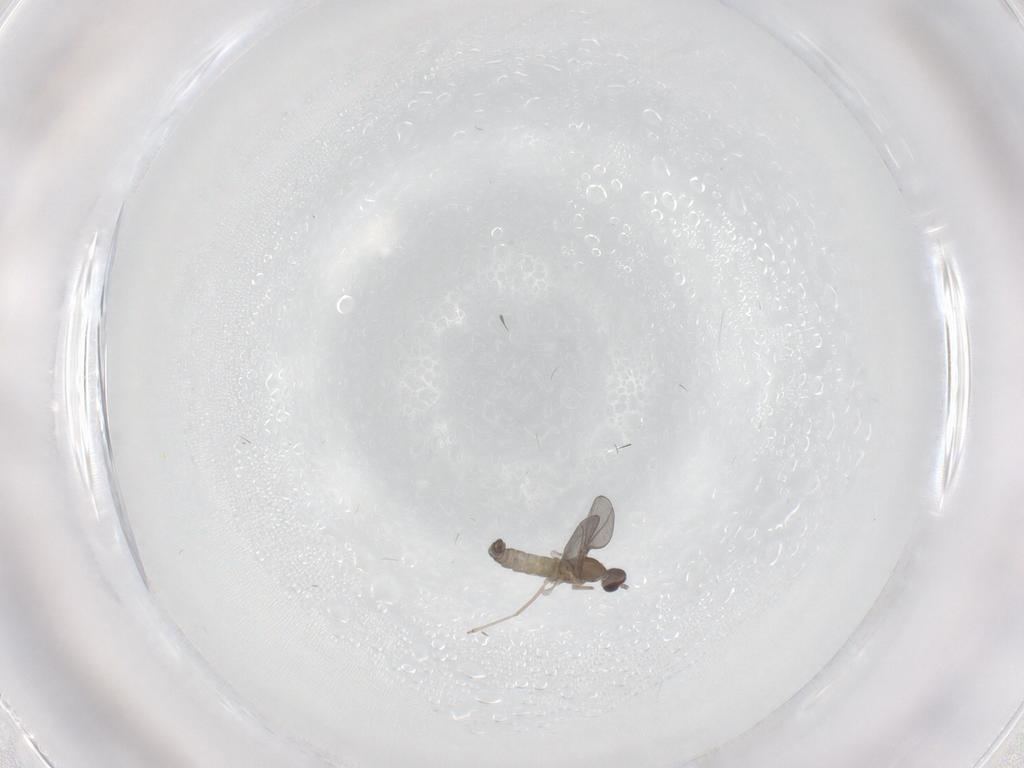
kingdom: Animalia
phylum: Arthropoda
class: Insecta
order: Diptera
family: Cecidomyiidae
